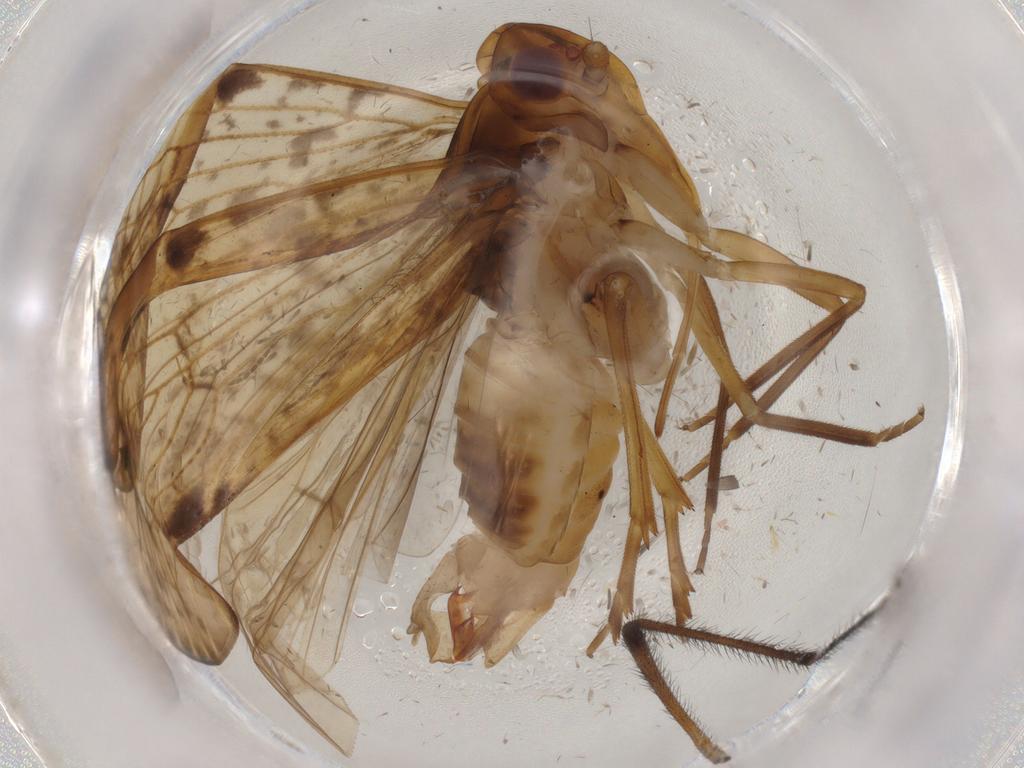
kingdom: Animalia
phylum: Arthropoda
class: Insecta
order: Hemiptera
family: Cixiidae
